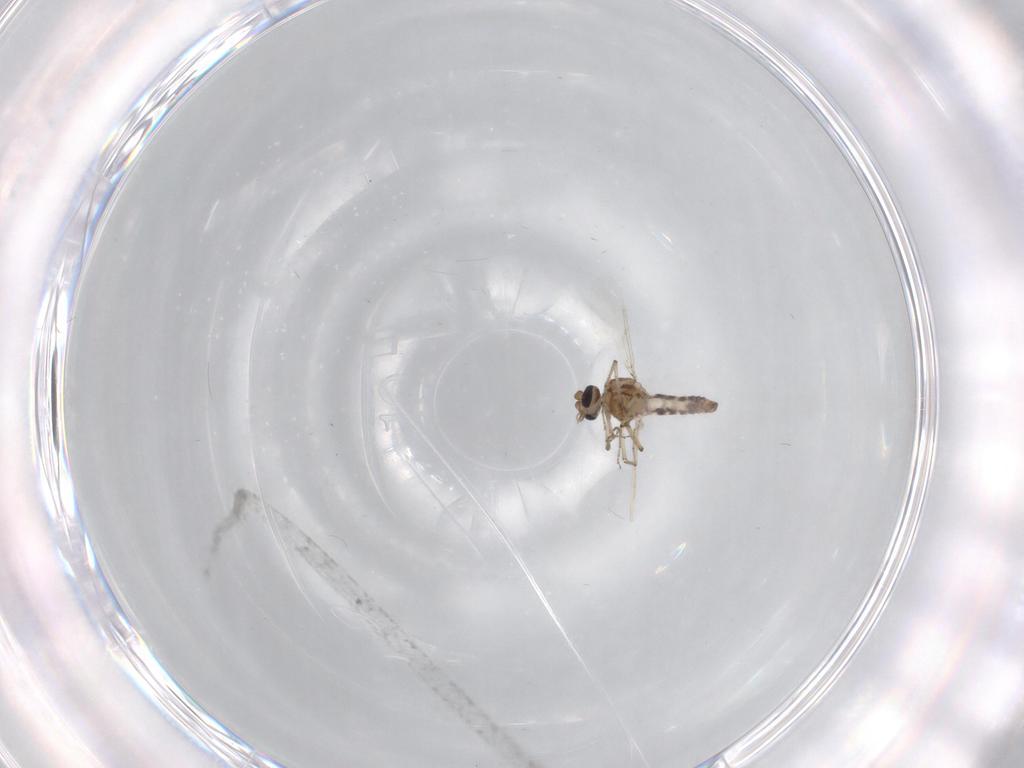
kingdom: Animalia
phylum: Arthropoda
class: Insecta
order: Diptera
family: Ceratopogonidae
